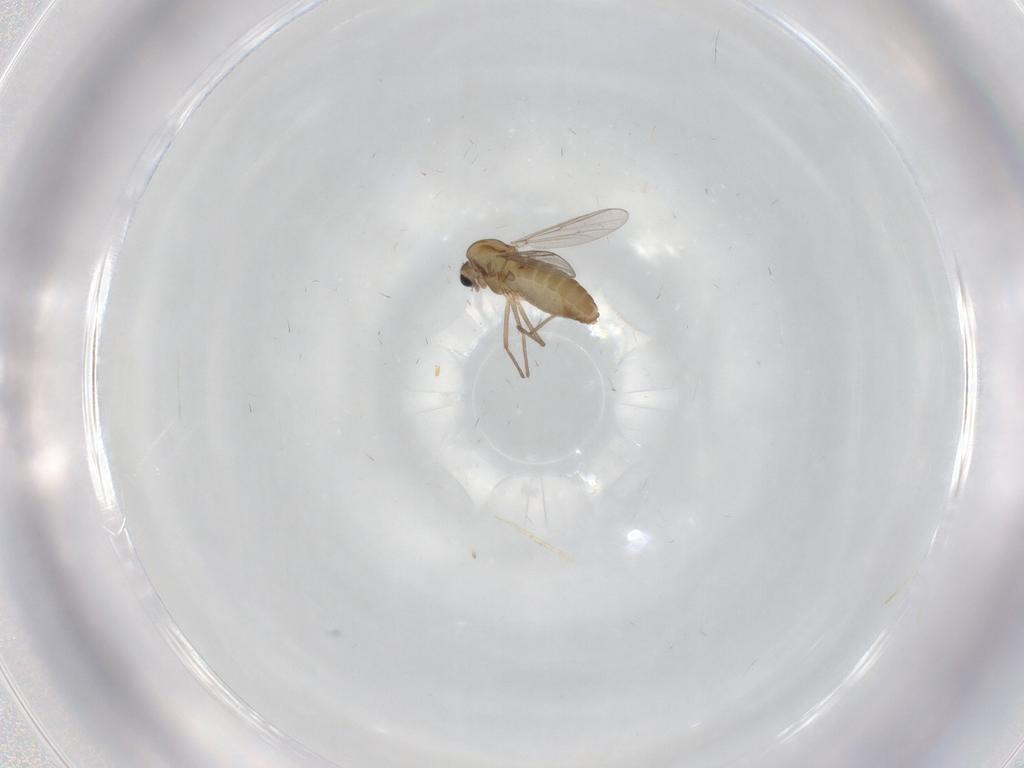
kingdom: Animalia
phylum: Arthropoda
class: Insecta
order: Diptera
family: Chironomidae
